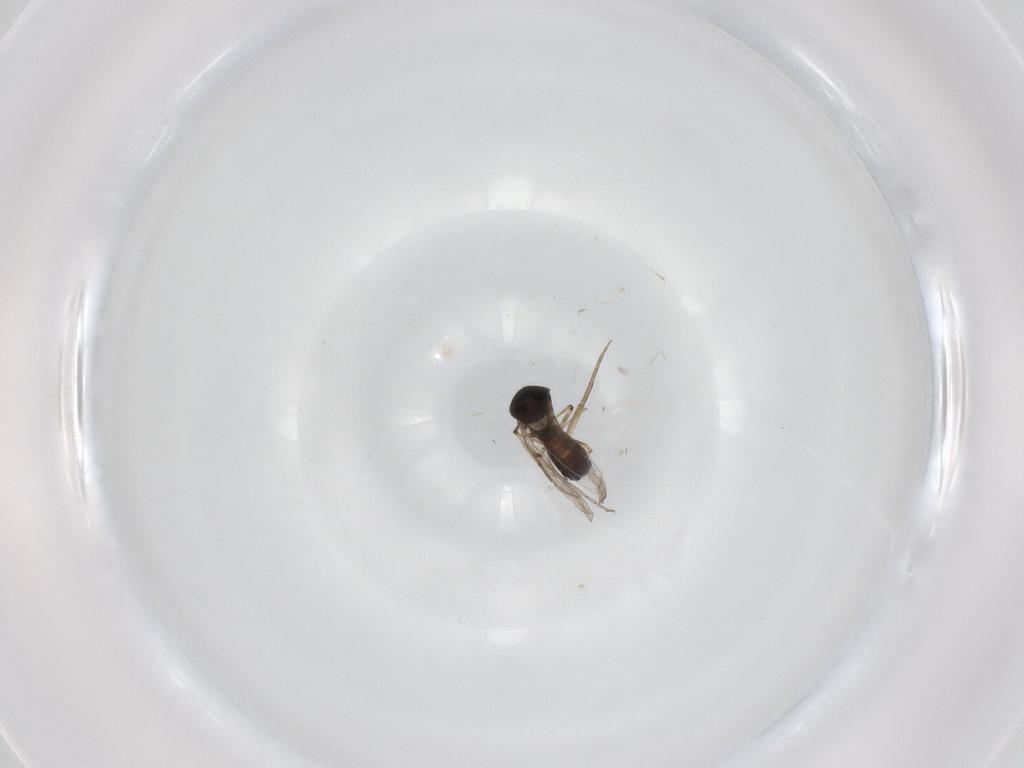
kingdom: Animalia
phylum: Arthropoda
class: Insecta
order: Diptera
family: Ceratopogonidae
